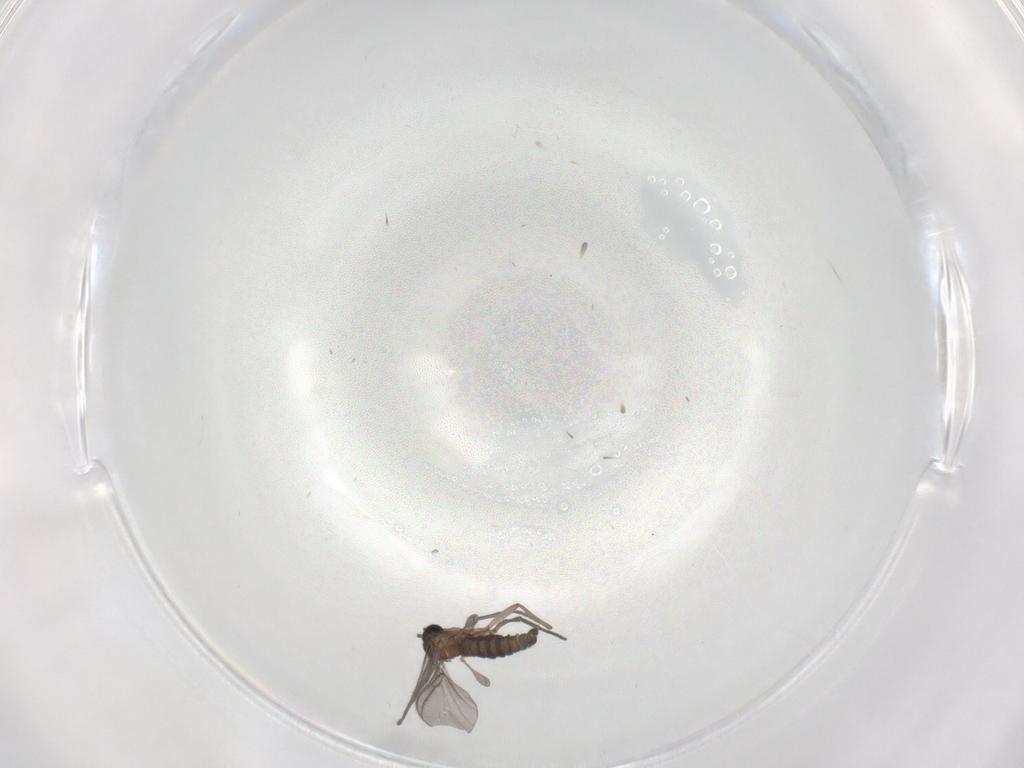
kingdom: Animalia
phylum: Arthropoda
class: Insecta
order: Diptera
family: Sciaridae
